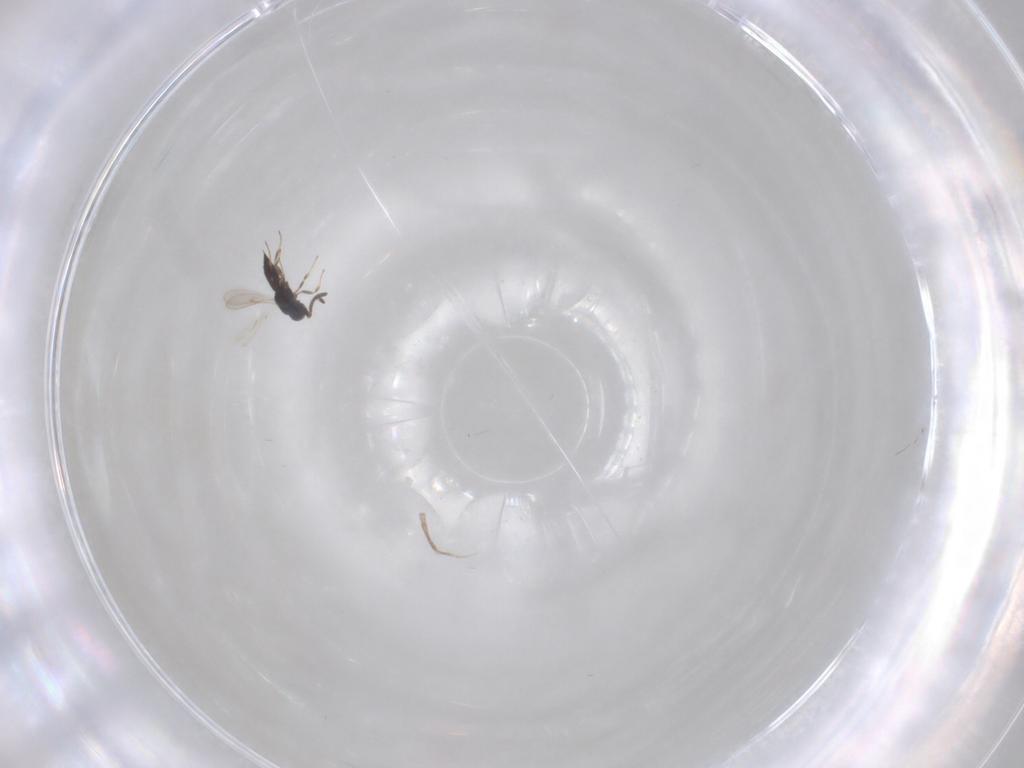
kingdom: Animalia
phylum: Arthropoda
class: Insecta
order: Hymenoptera
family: Scelionidae
